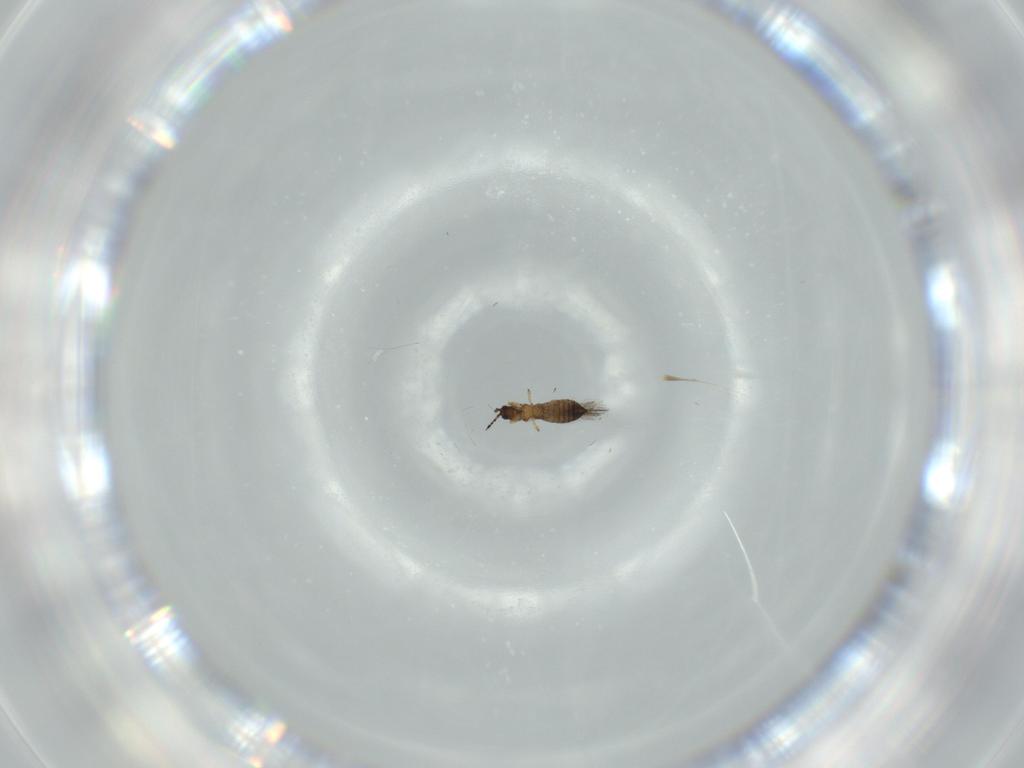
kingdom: Animalia
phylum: Arthropoda
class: Insecta
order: Thysanoptera
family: Thripidae
